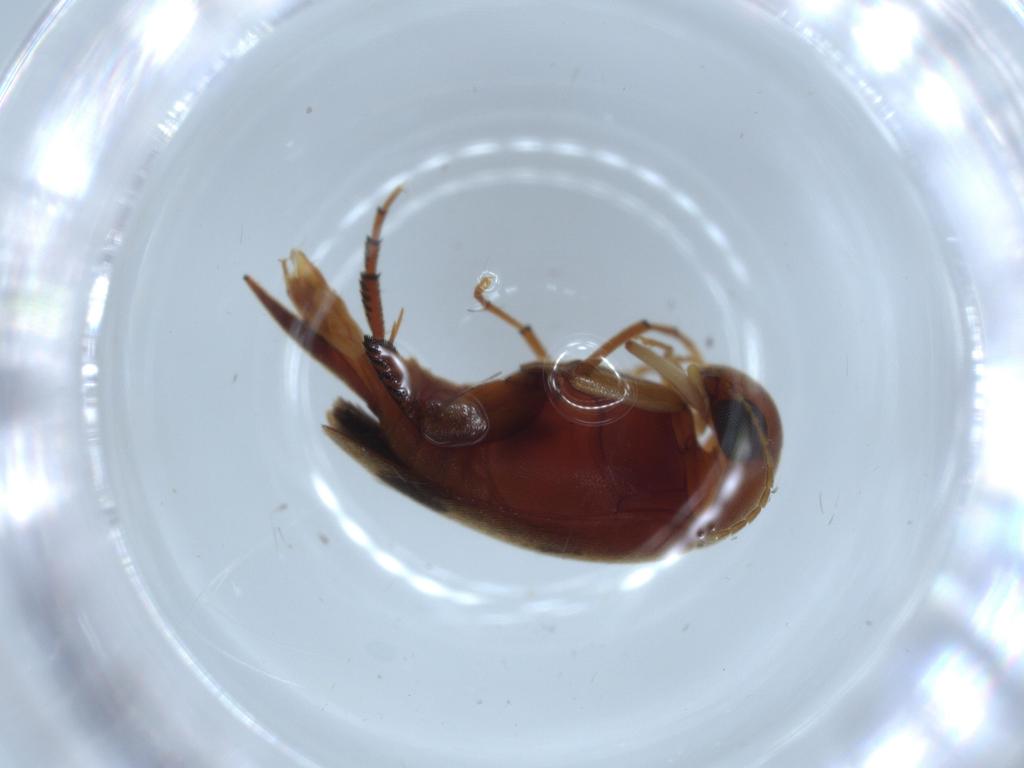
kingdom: Animalia
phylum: Arthropoda
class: Insecta
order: Coleoptera
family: Mordellidae
